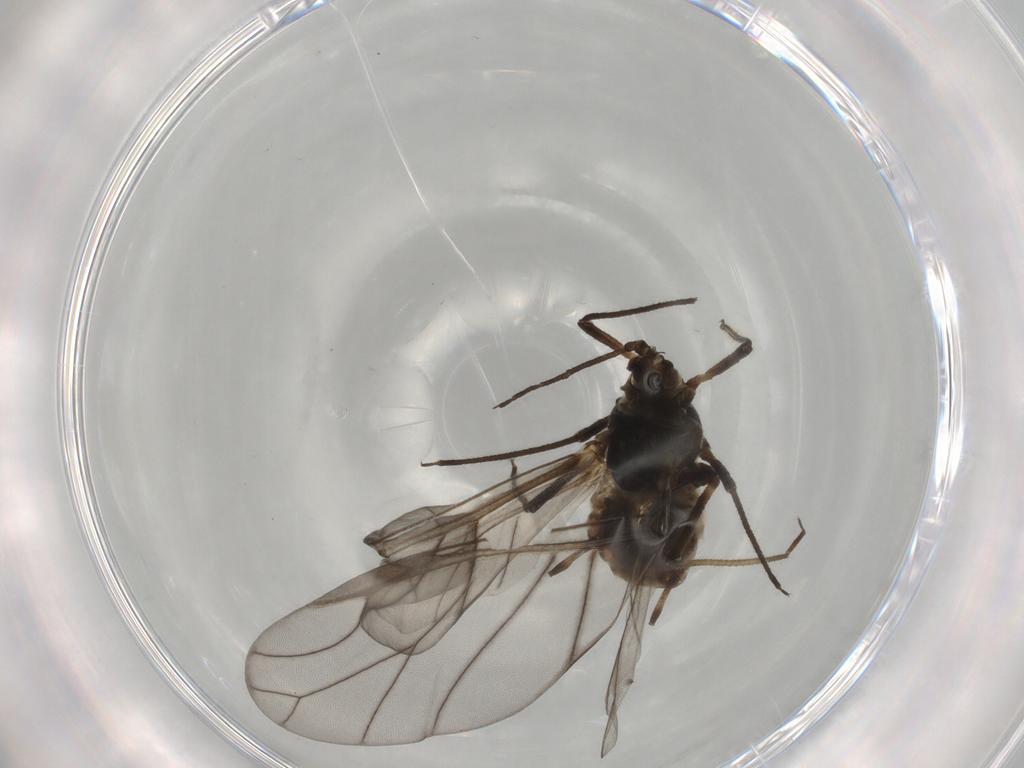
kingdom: Animalia
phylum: Arthropoda
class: Insecta
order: Hemiptera
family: Aphididae
